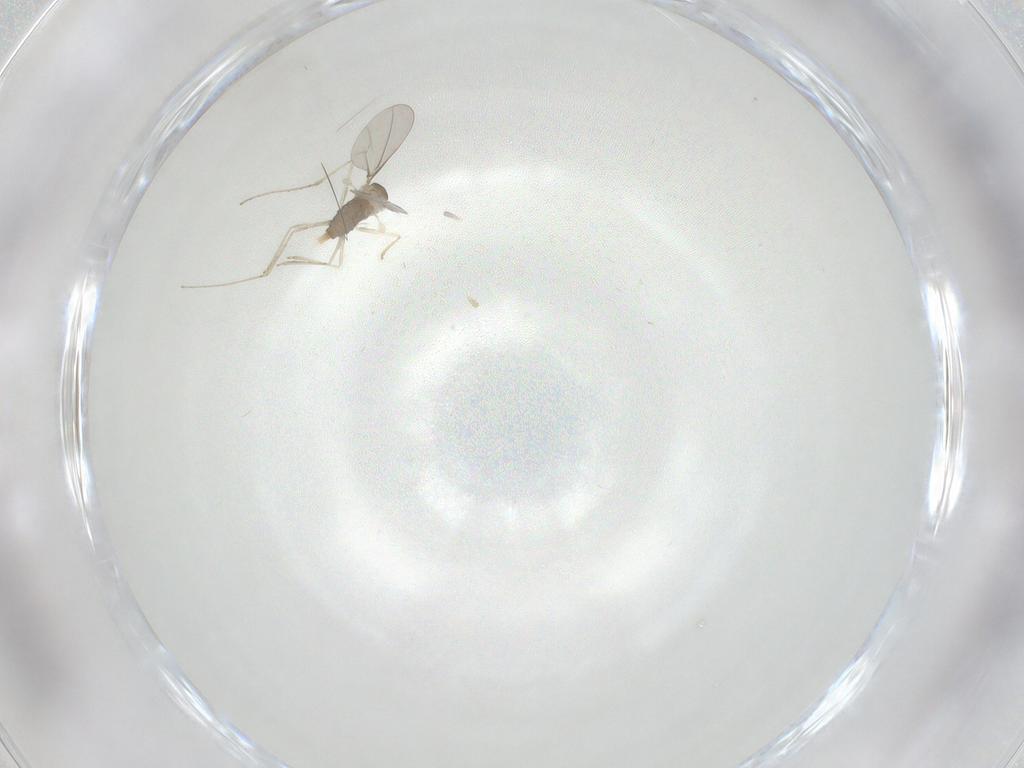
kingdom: Animalia
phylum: Arthropoda
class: Insecta
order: Diptera
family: Cecidomyiidae
